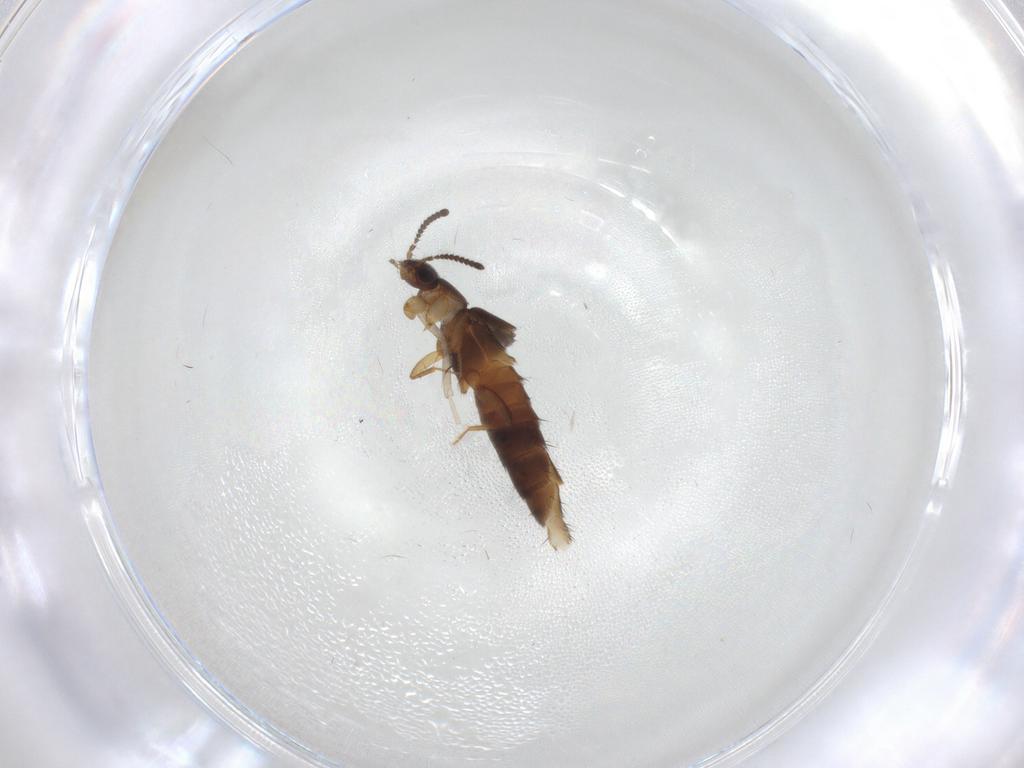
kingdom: Animalia
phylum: Arthropoda
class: Insecta
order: Coleoptera
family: Staphylinidae
